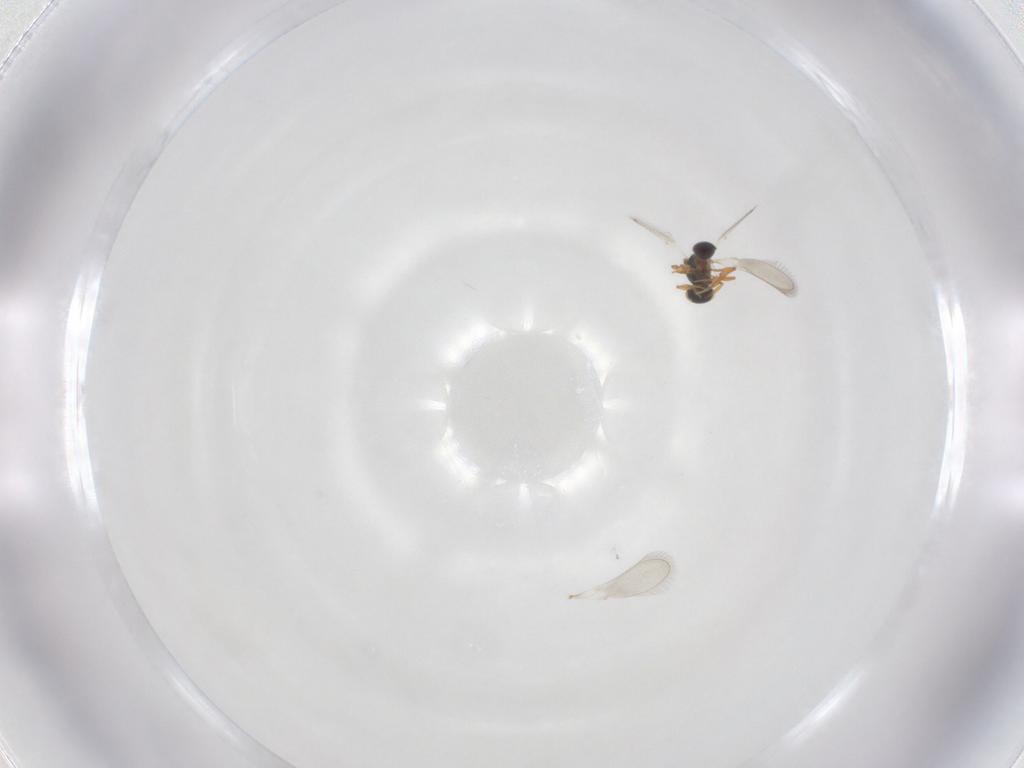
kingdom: Animalia
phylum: Arthropoda
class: Insecta
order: Hymenoptera
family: Platygastridae
